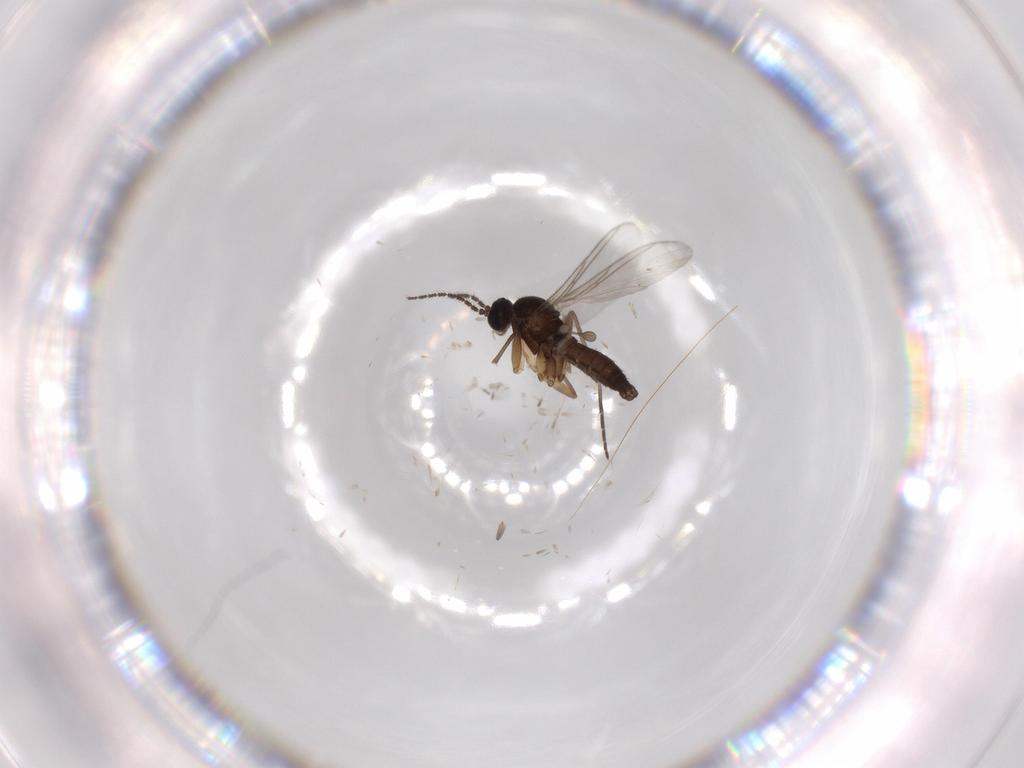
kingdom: Animalia
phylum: Arthropoda
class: Insecta
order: Diptera
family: Sciaridae
